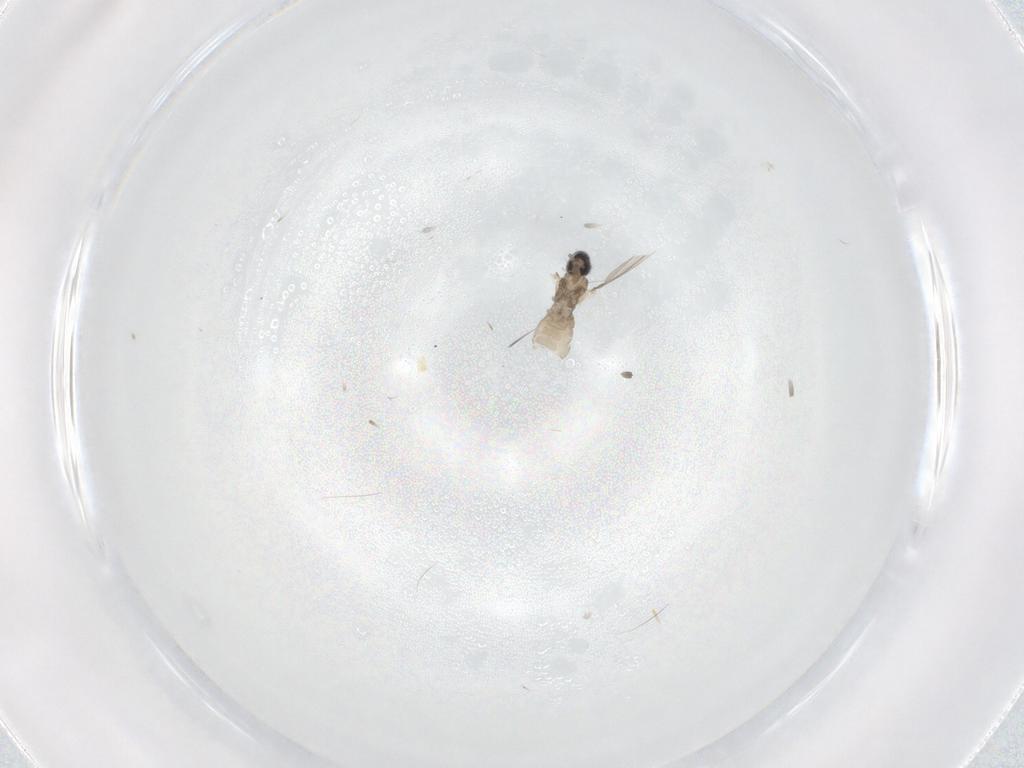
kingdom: Animalia
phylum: Arthropoda
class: Insecta
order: Diptera
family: Cecidomyiidae
